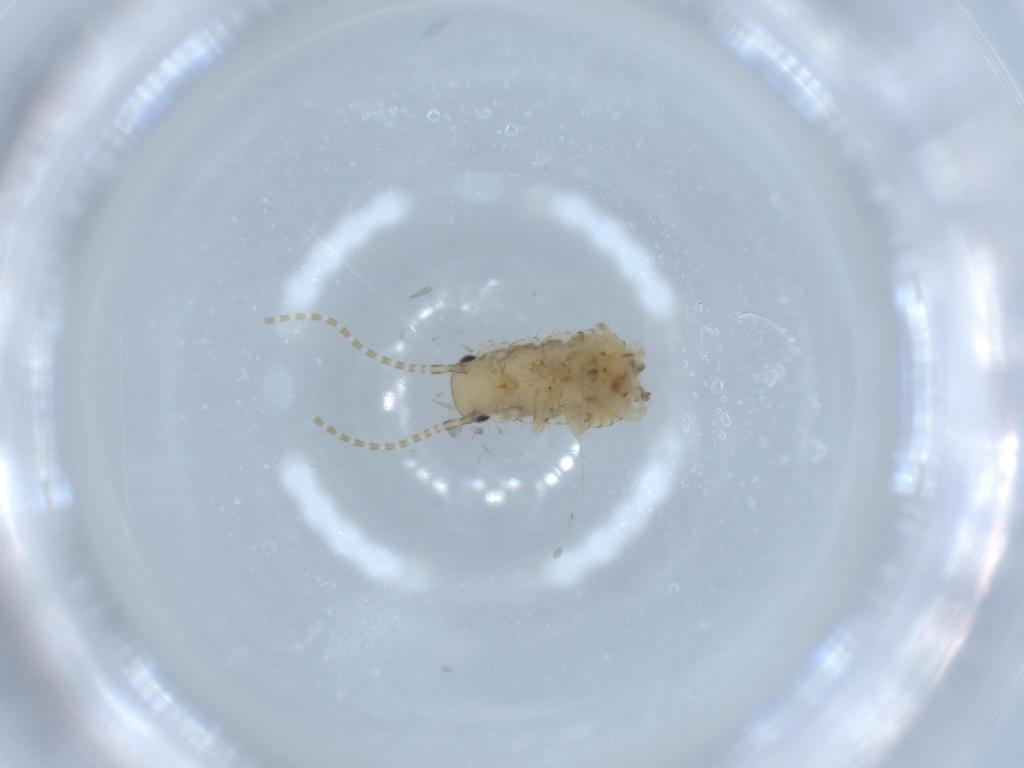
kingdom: Animalia
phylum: Arthropoda
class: Insecta
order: Blattodea
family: Ectobiidae
